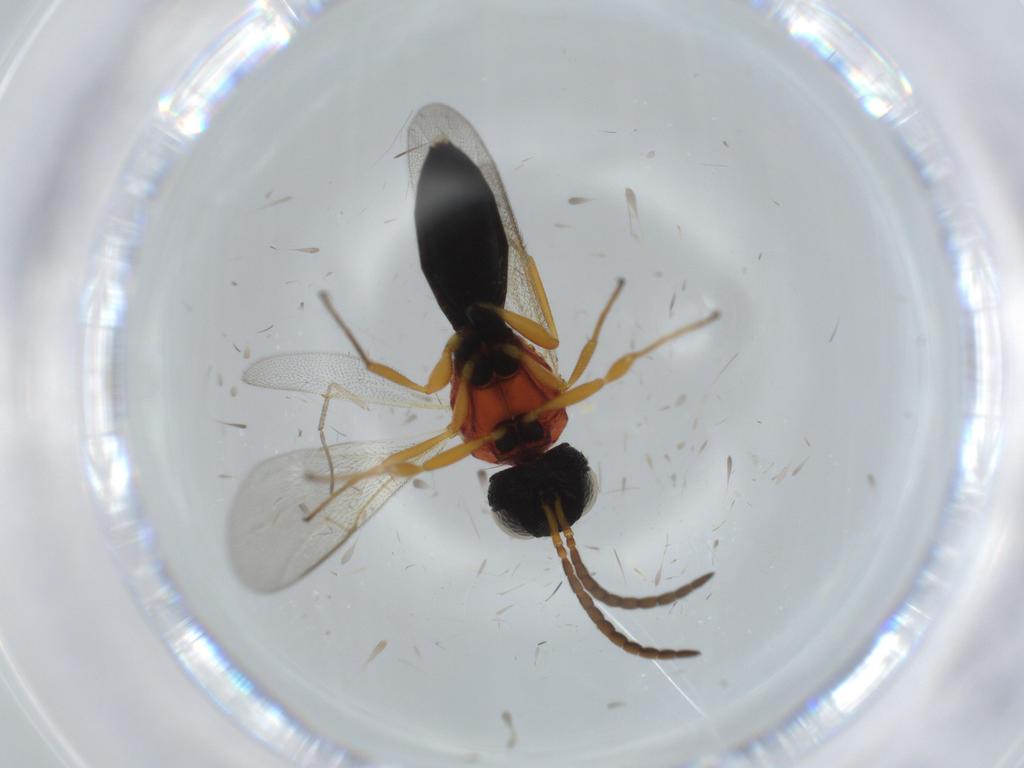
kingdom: Animalia
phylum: Arthropoda
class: Insecta
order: Hymenoptera
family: Scelionidae
